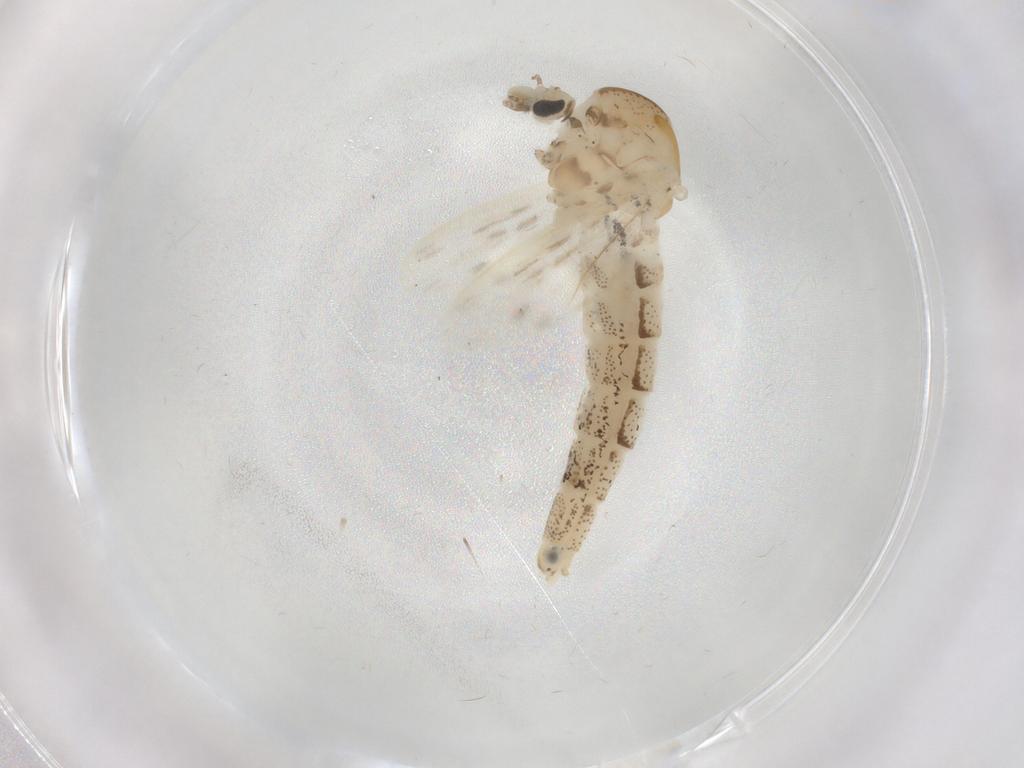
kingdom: Animalia
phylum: Arthropoda
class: Insecta
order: Diptera
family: Chaoboridae
